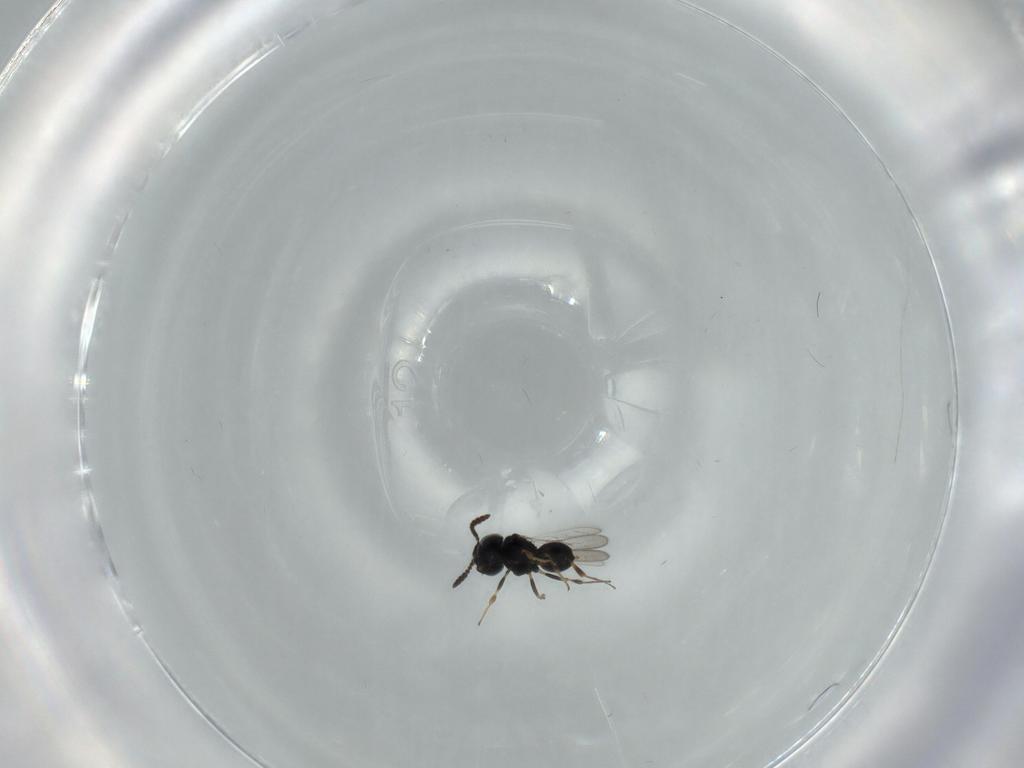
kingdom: Animalia
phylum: Arthropoda
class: Insecta
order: Hymenoptera
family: Scelionidae
